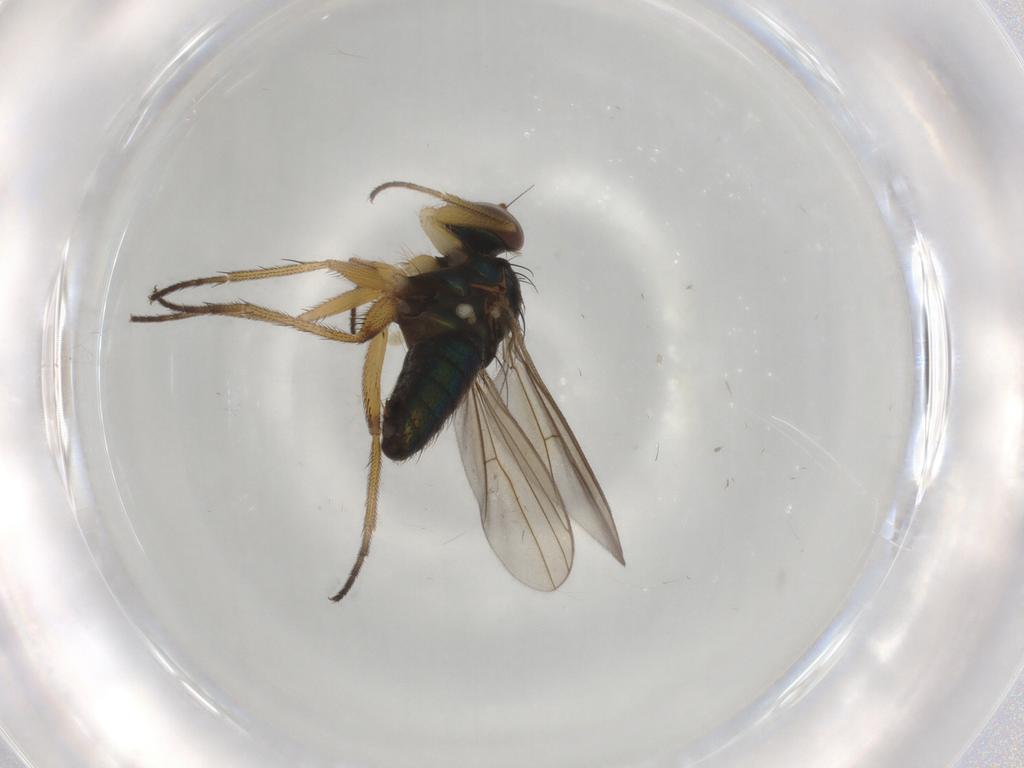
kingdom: Animalia
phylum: Arthropoda
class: Insecta
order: Diptera
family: Dolichopodidae
